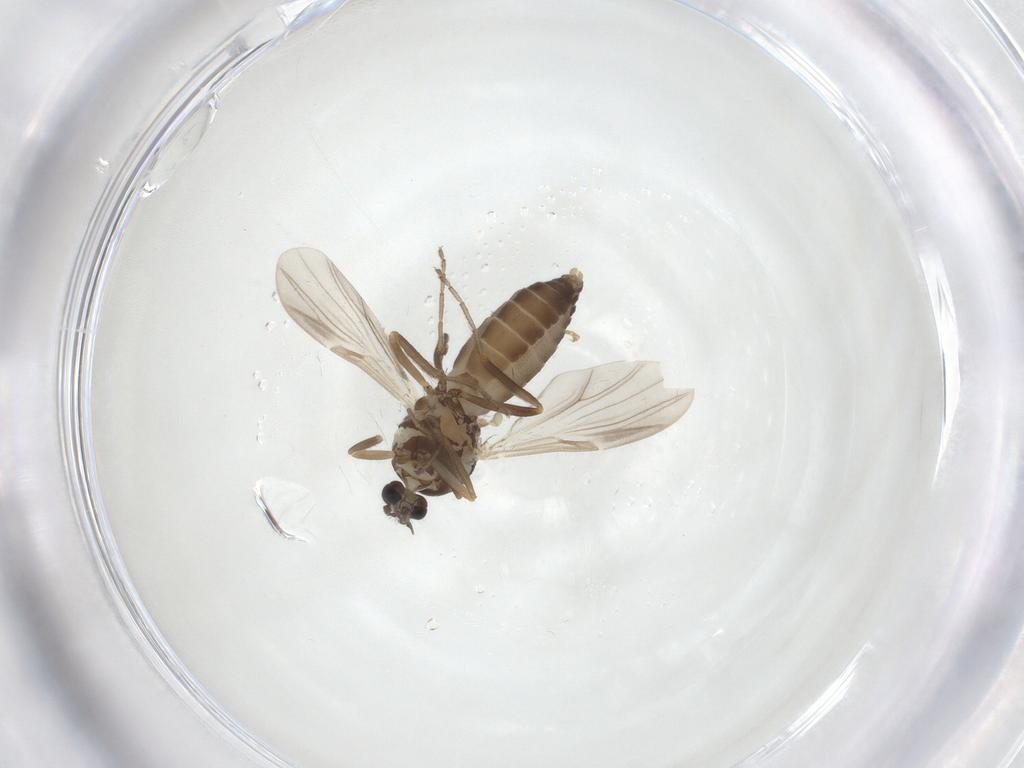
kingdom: Animalia
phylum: Arthropoda
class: Insecta
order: Diptera
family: Ceratopogonidae
